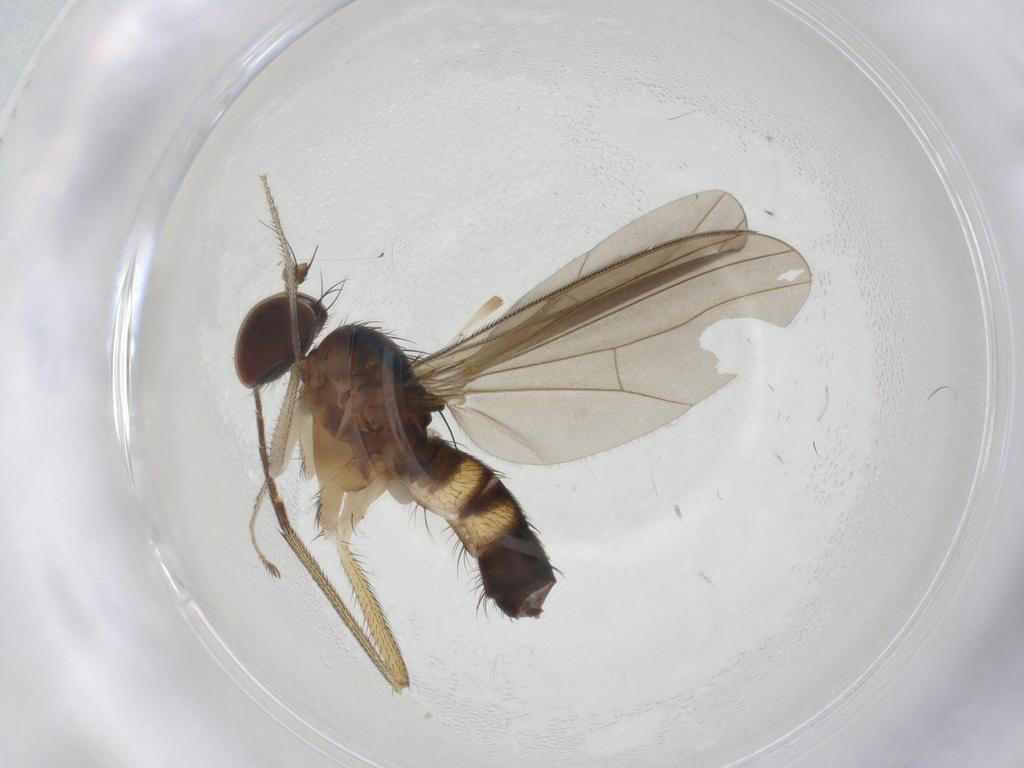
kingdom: Animalia
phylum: Arthropoda
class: Insecta
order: Diptera
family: Dolichopodidae
